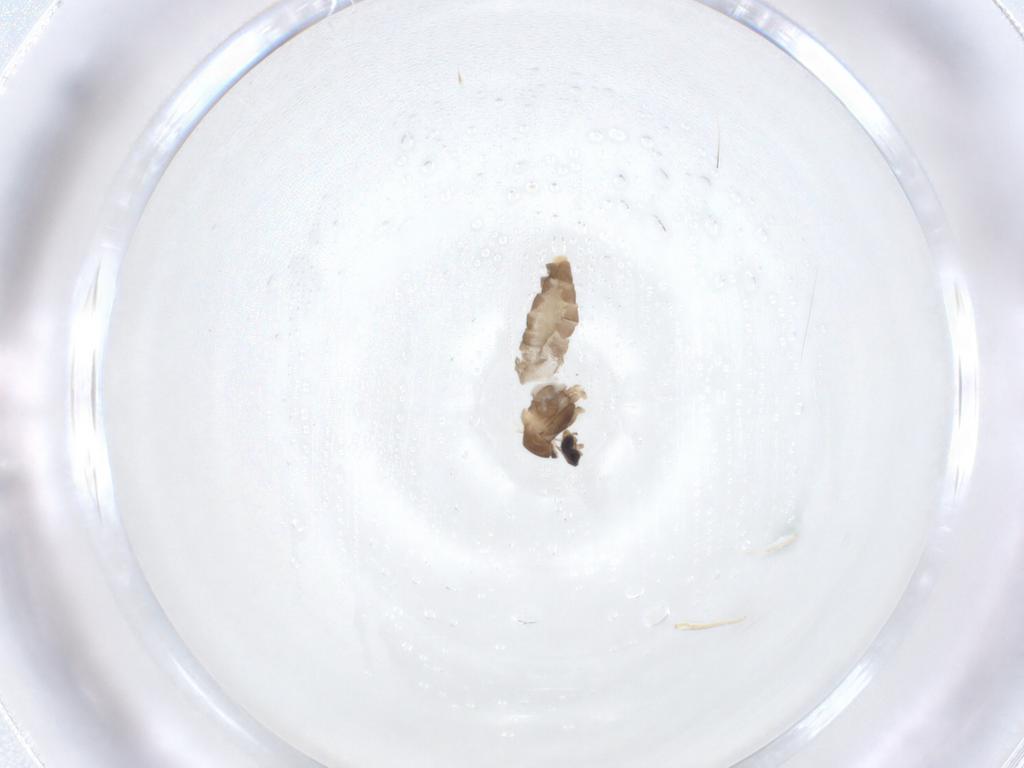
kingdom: Animalia
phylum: Arthropoda
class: Insecta
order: Diptera
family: Cecidomyiidae
